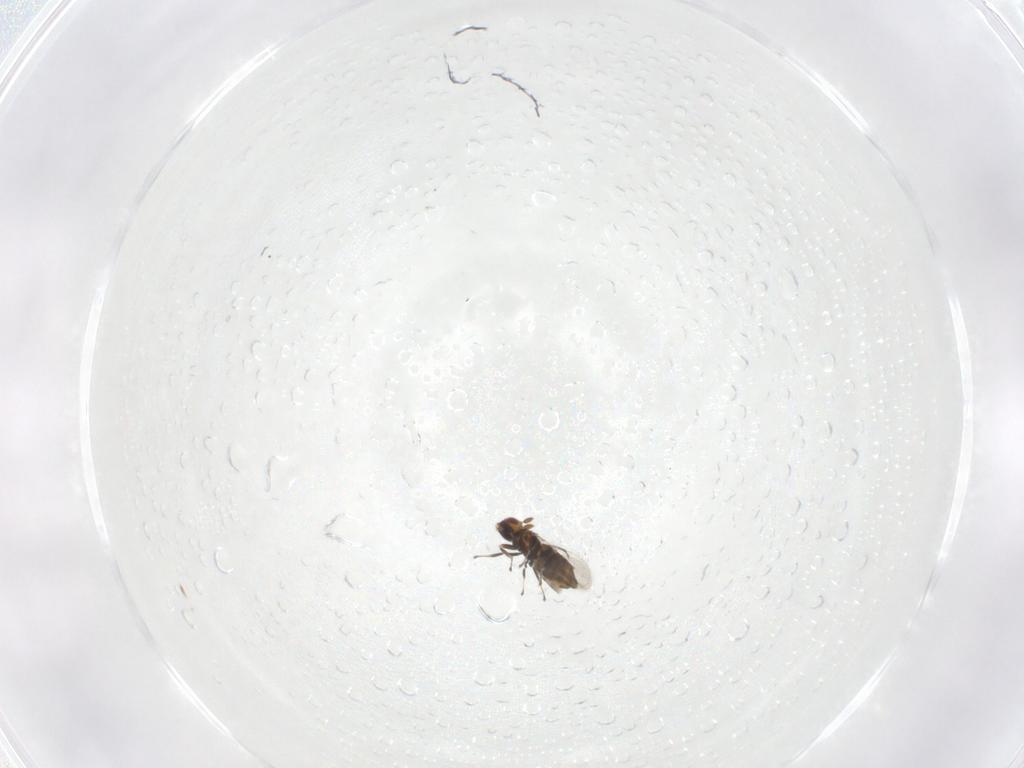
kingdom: Animalia
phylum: Arthropoda
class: Insecta
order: Hymenoptera
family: Trichogrammatidae
